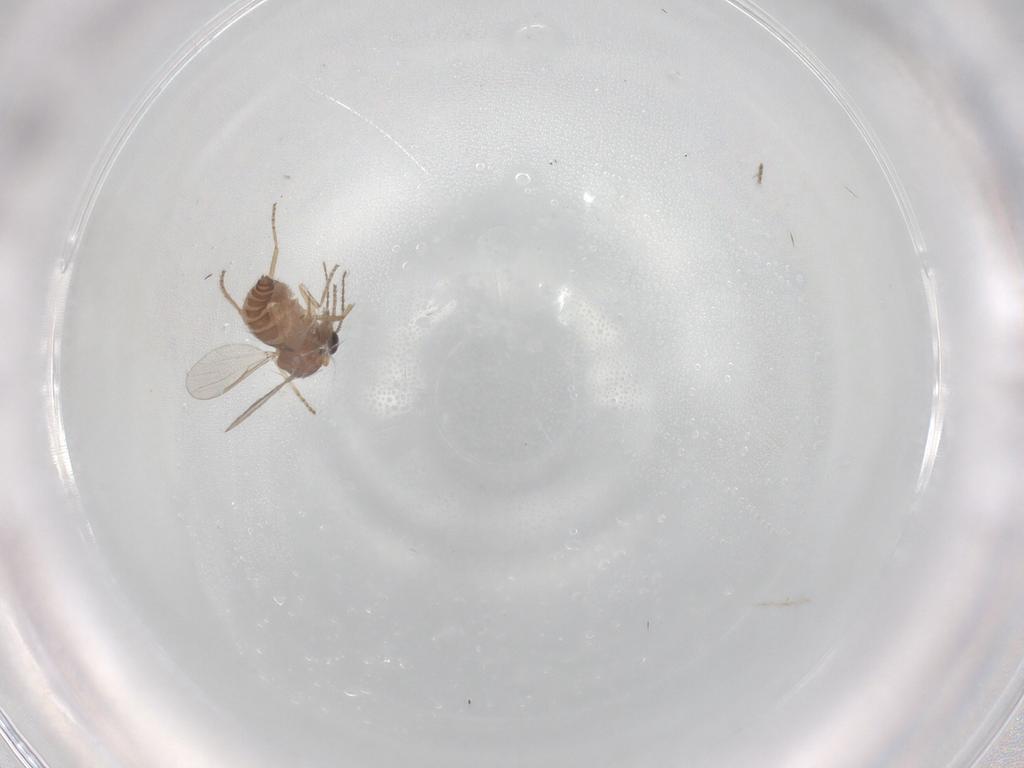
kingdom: Animalia
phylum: Arthropoda
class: Insecta
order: Diptera
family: Ceratopogonidae
